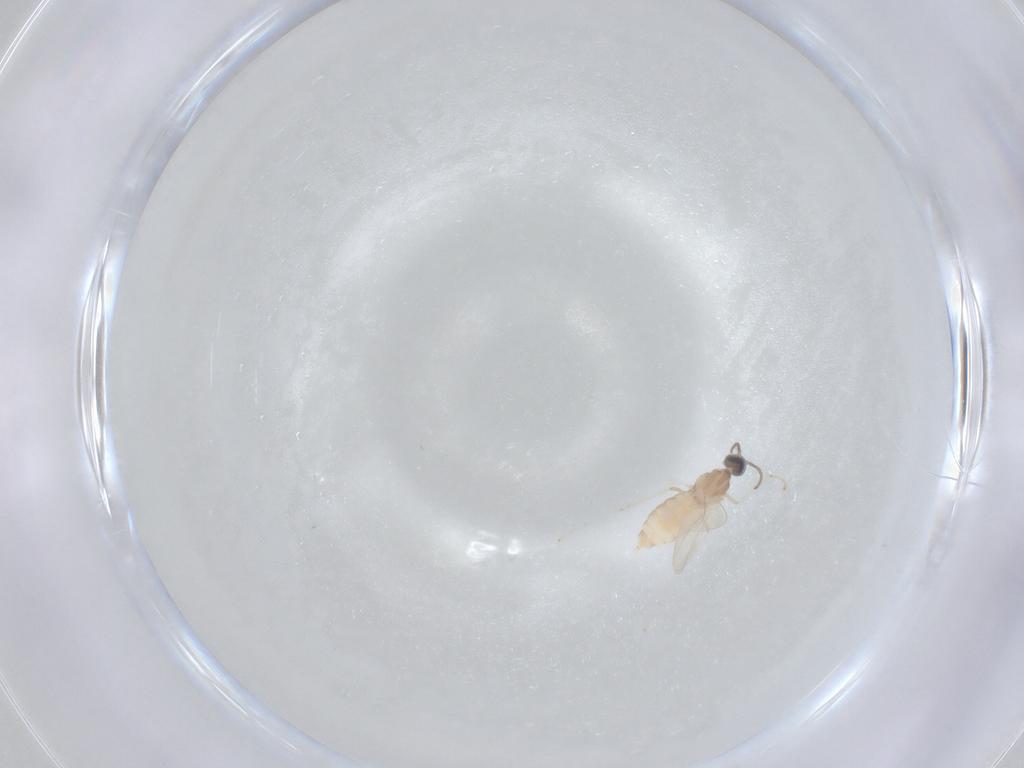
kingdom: Animalia
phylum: Arthropoda
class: Insecta
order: Diptera
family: Cecidomyiidae
